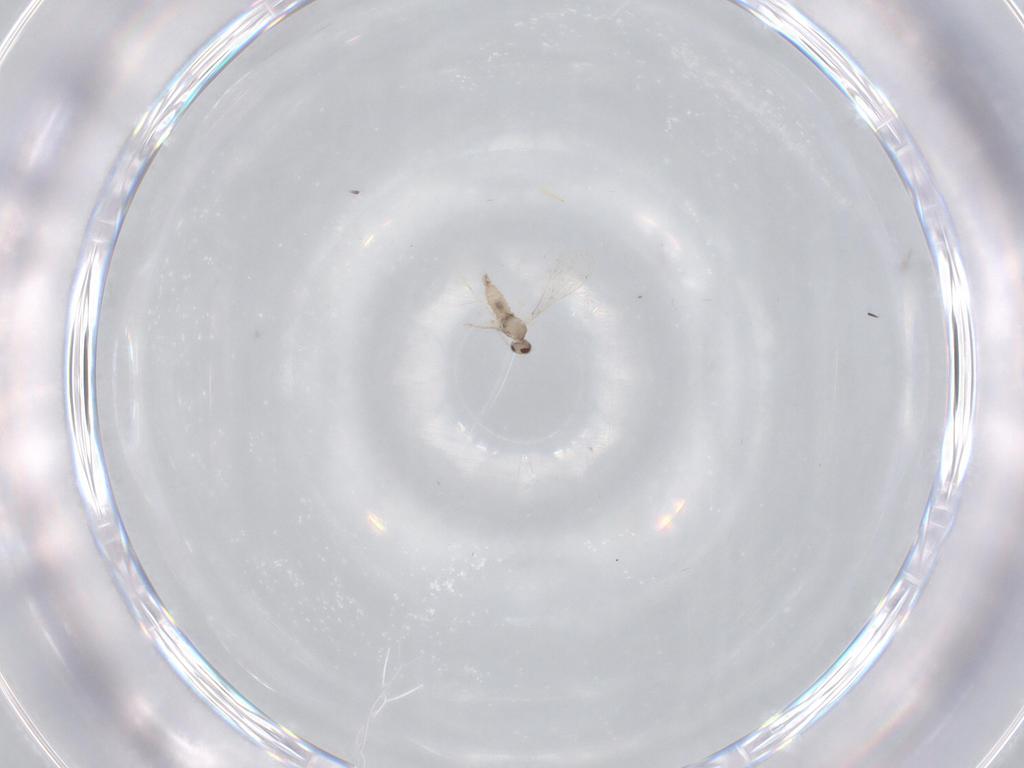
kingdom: Animalia
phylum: Arthropoda
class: Insecta
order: Diptera
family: Cecidomyiidae
